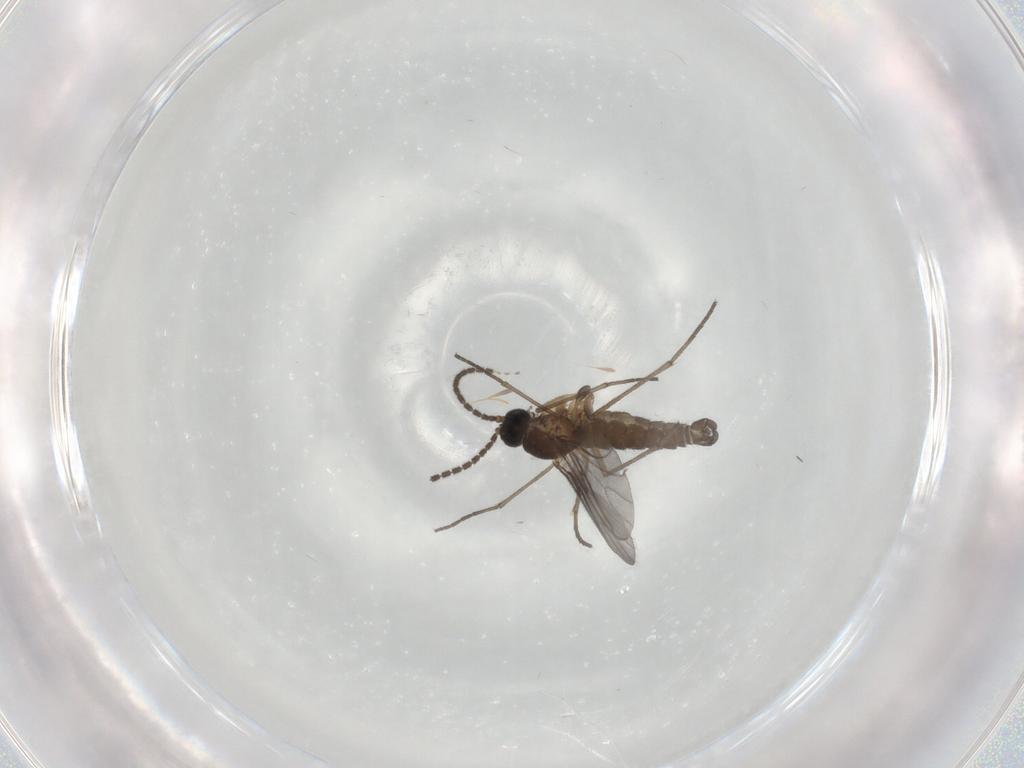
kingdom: Animalia
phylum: Arthropoda
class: Insecta
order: Diptera
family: Sciaridae
